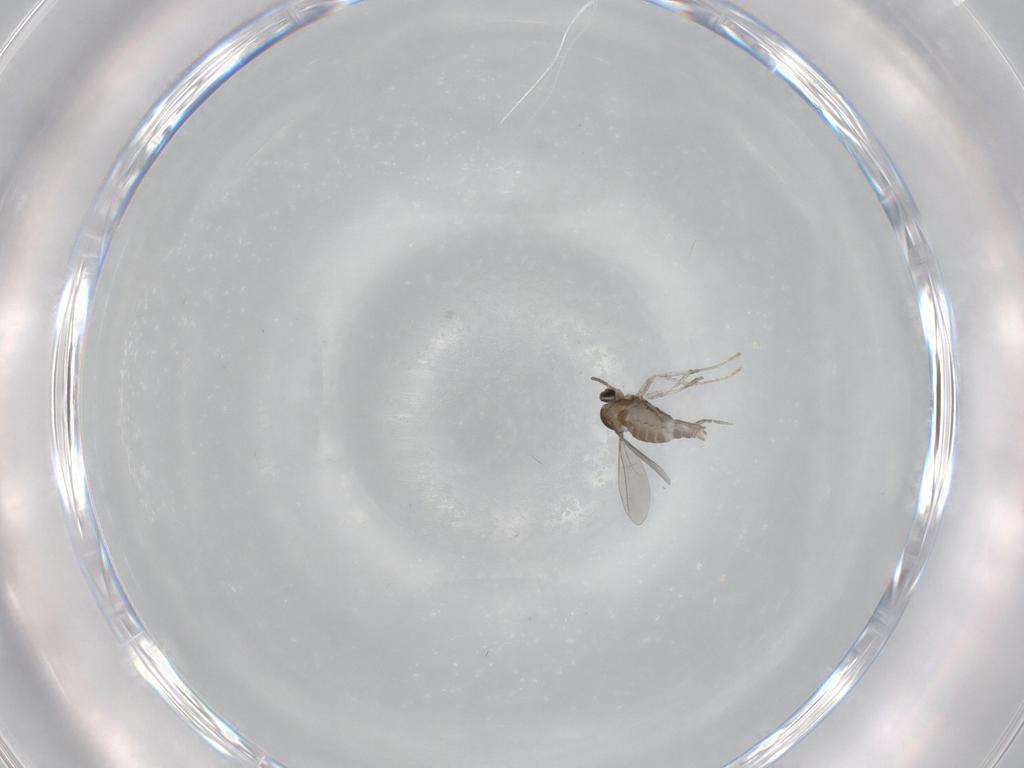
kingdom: Animalia
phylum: Arthropoda
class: Insecta
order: Diptera
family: Cecidomyiidae
